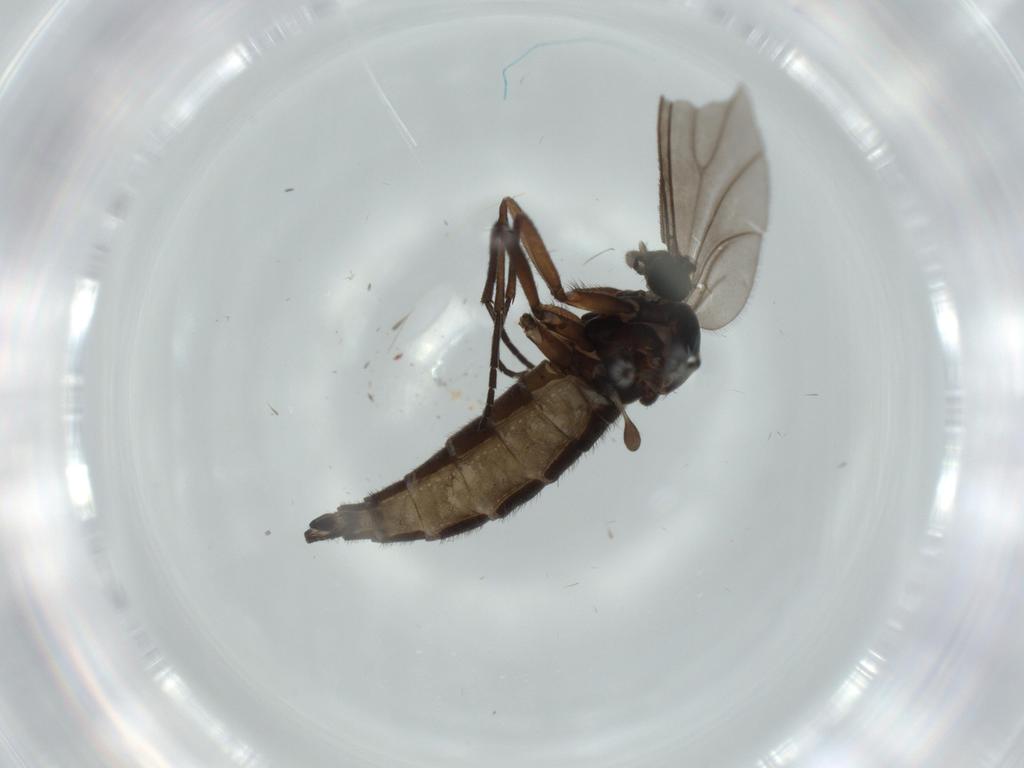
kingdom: Animalia
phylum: Arthropoda
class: Insecta
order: Diptera
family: Sciaridae
